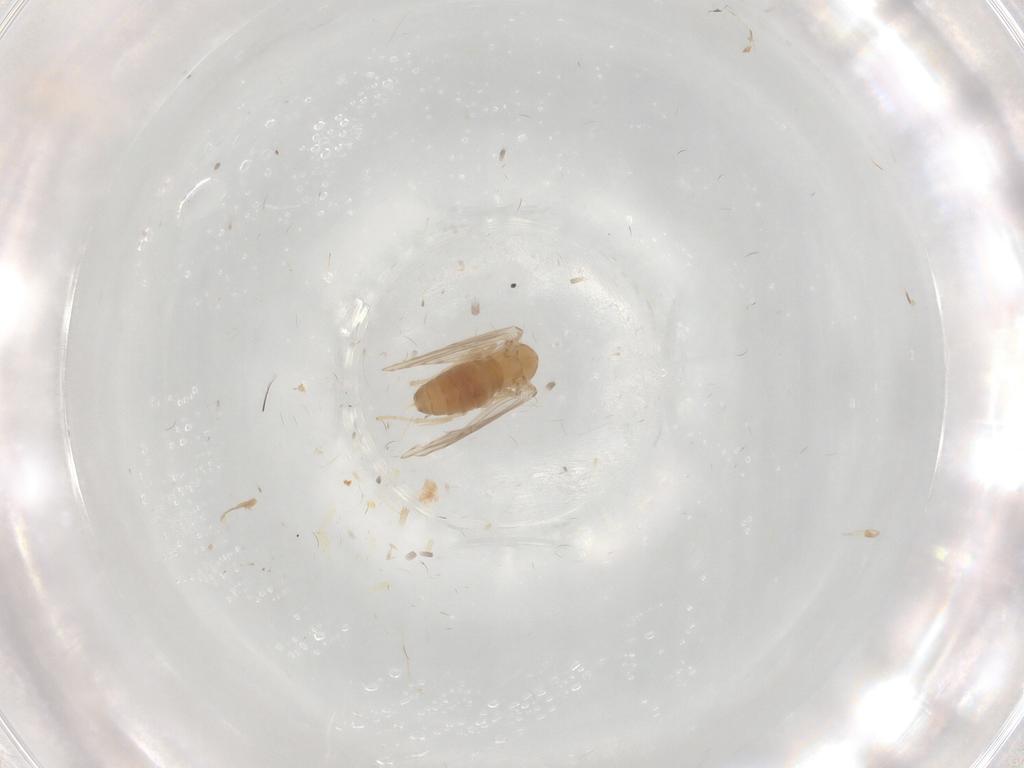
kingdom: Animalia
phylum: Arthropoda
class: Insecta
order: Diptera
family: Psychodidae
